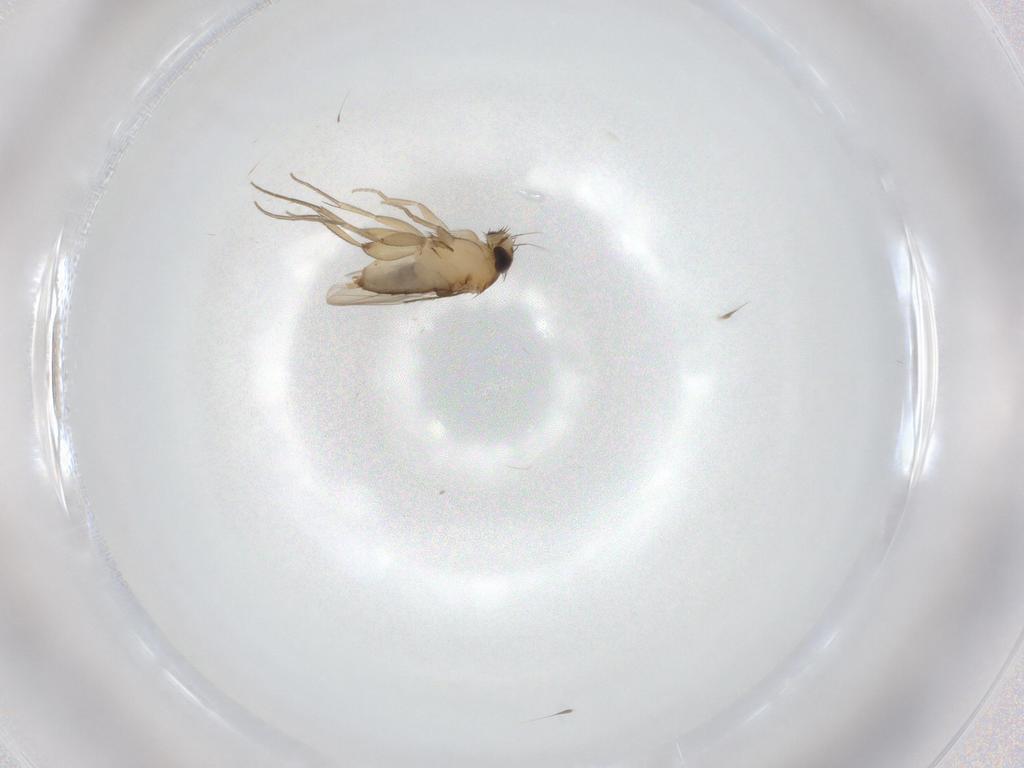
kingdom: Animalia
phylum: Arthropoda
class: Insecta
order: Diptera
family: Phoridae
